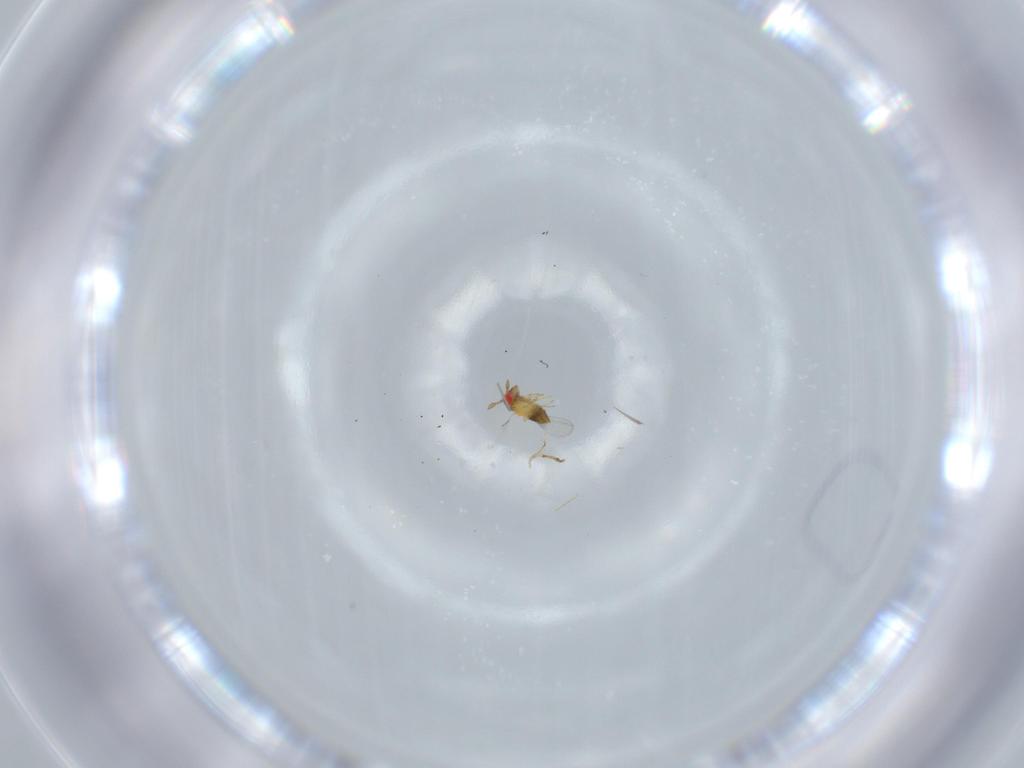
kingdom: Animalia
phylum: Arthropoda
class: Insecta
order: Hymenoptera
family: Trichogrammatidae
